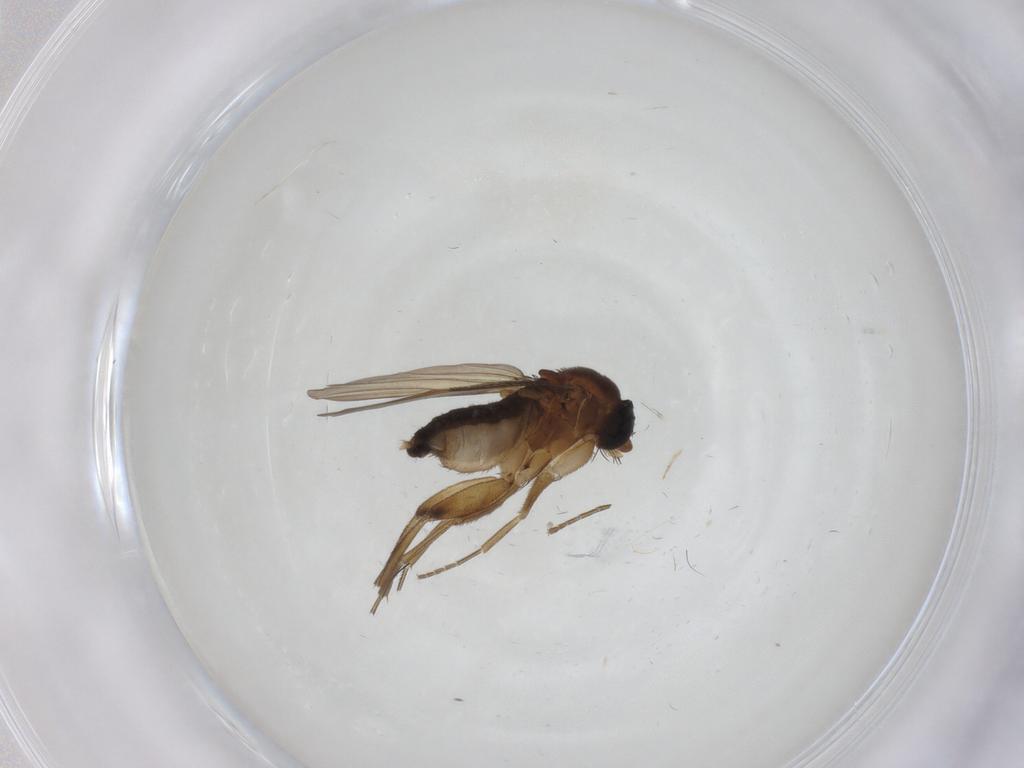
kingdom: Animalia
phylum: Arthropoda
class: Insecta
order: Diptera
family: Phoridae
